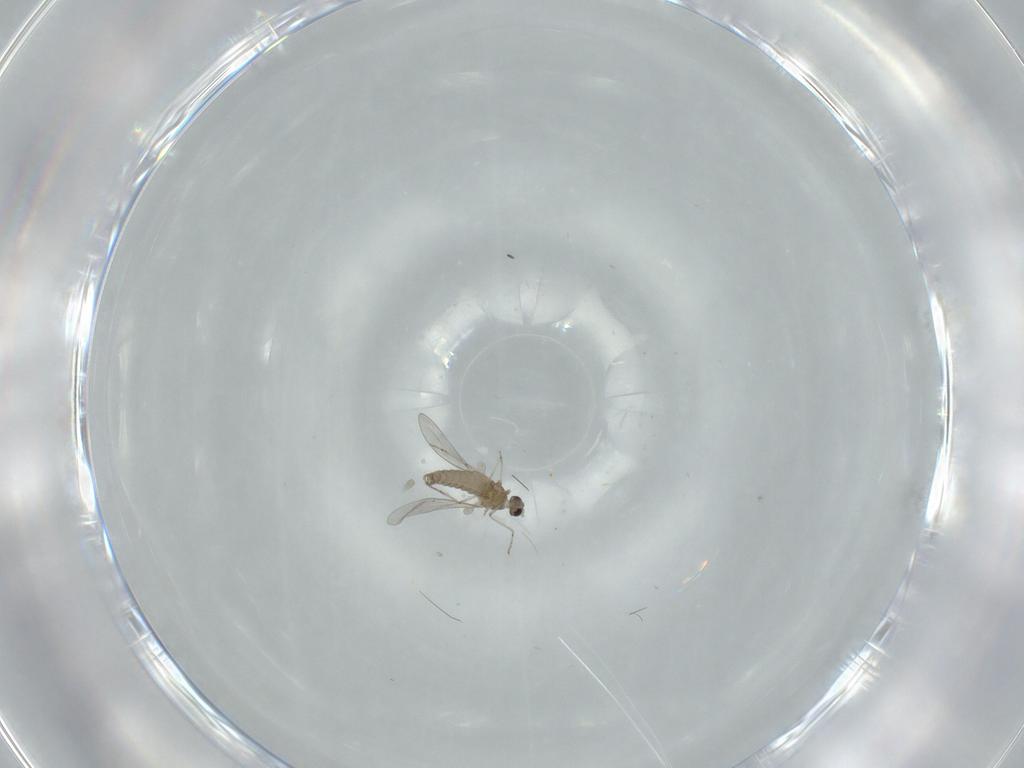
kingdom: Animalia
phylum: Arthropoda
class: Insecta
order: Diptera
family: Cecidomyiidae
